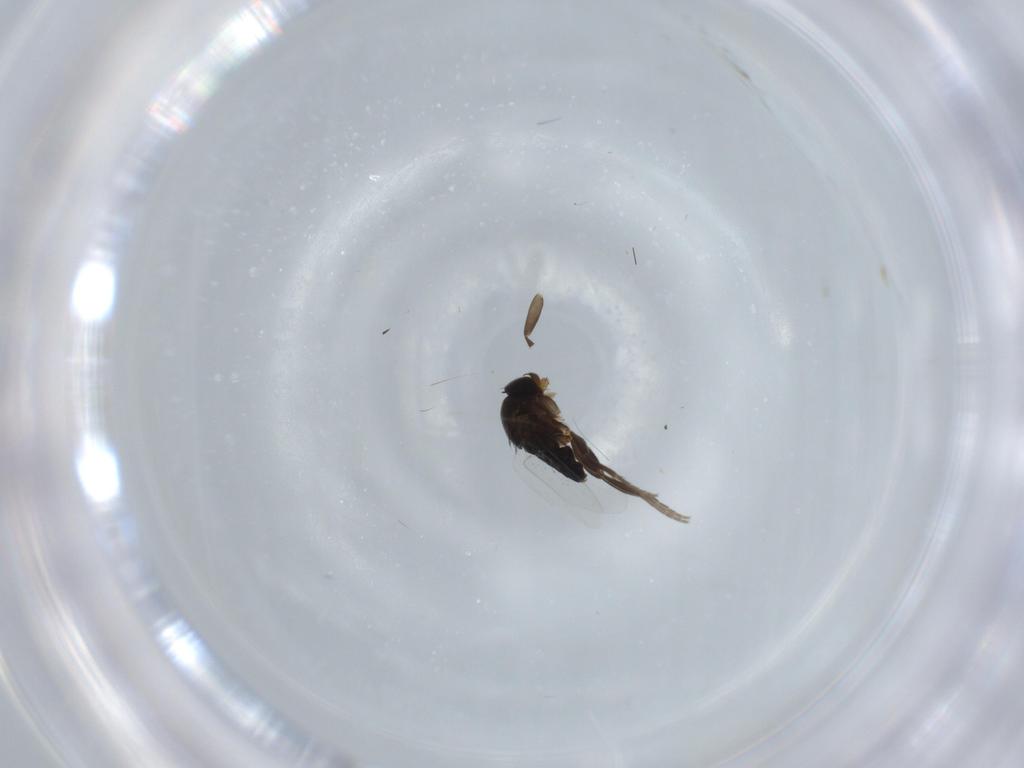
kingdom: Animalia
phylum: Arthropoda
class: Insecta
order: Diptera
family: Phoridae
